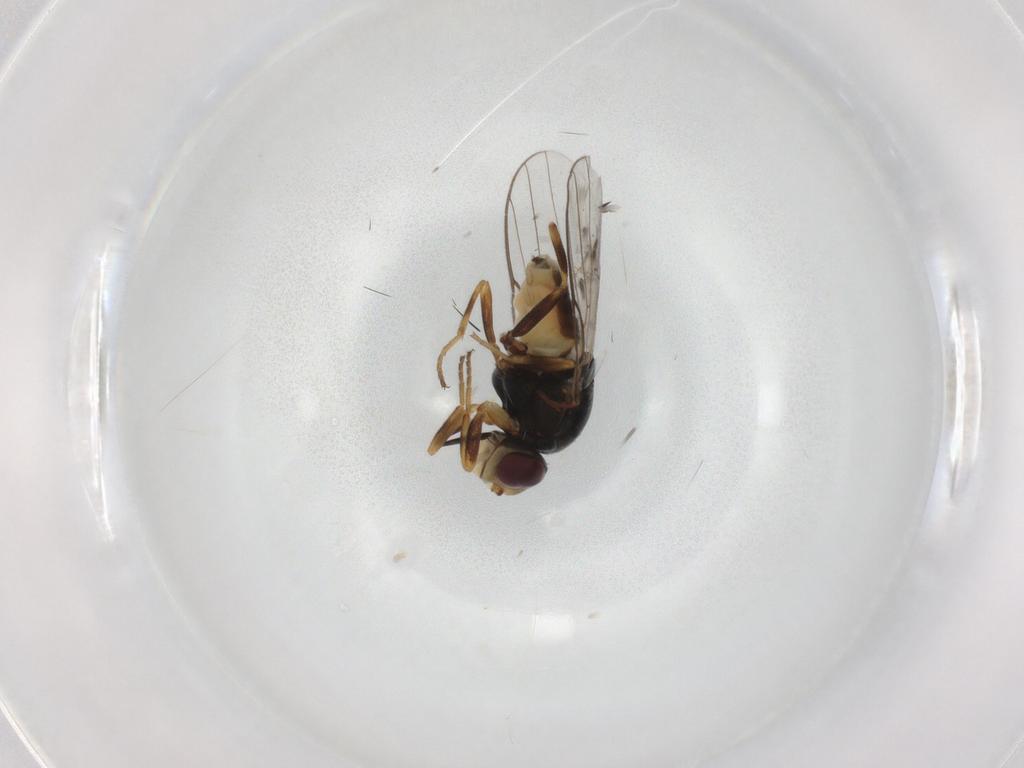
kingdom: Animalia
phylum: Arthropoda
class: Insecta
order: Diptera
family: Chloropidae
